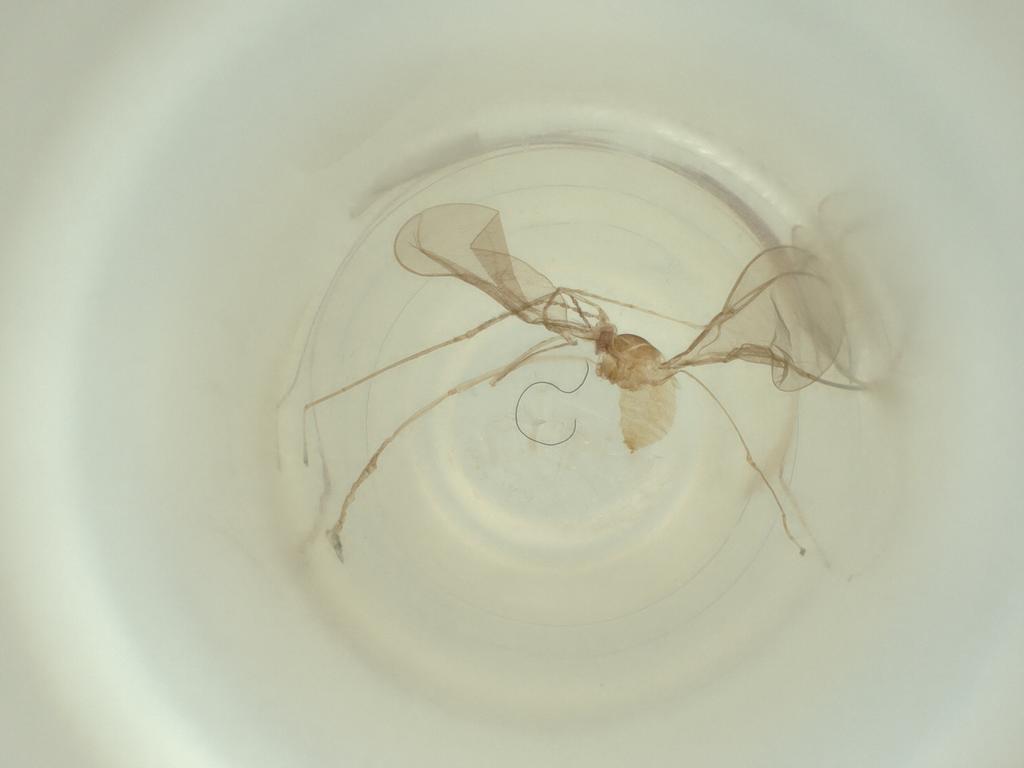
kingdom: Animalia
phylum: Arthropoda
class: Insecta
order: Diptera
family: Cecidomyiidae
